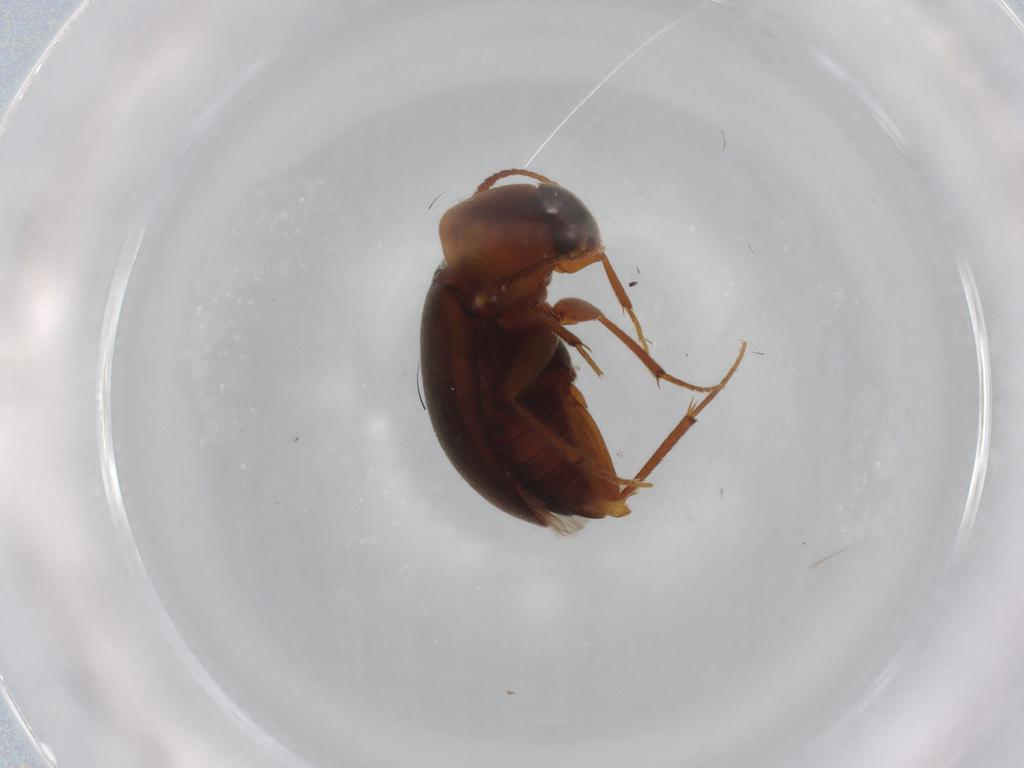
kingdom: Animalia
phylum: Arthropoda
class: Insecta
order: Coleoptera
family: Leiodidae
